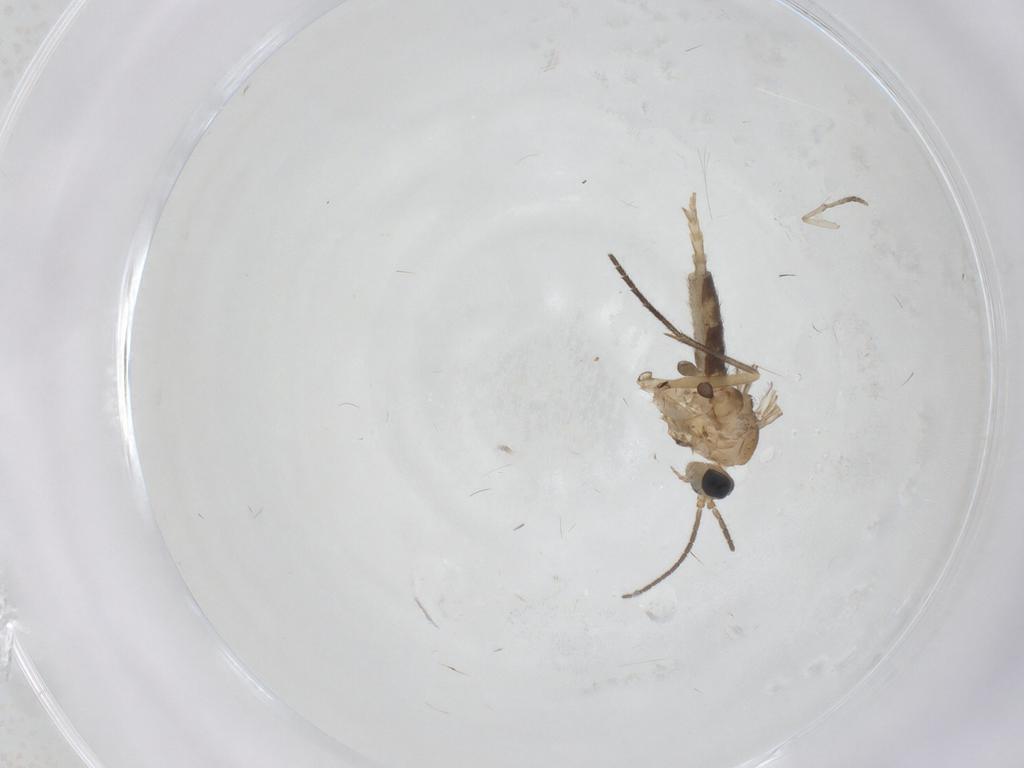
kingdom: Animalia
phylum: Arthropoda
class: Insecta
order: Diptera
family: Sciaridae
